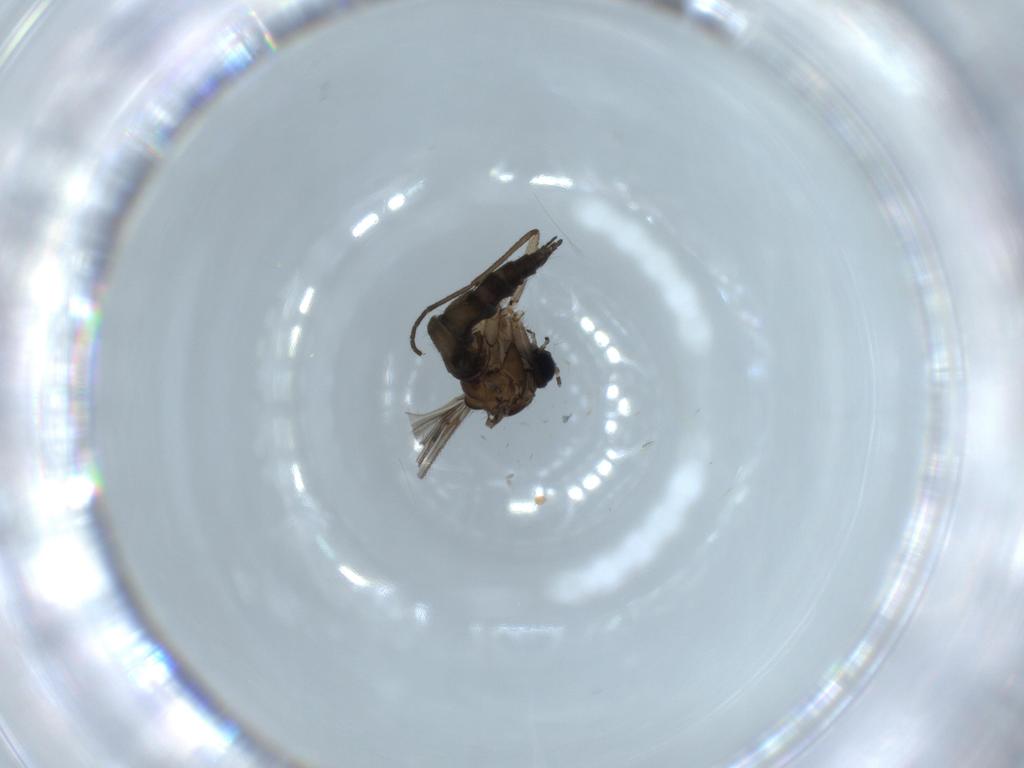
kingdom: Animalia
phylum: Arthropoda
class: Insecta
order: Diptera
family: Sciaridae
